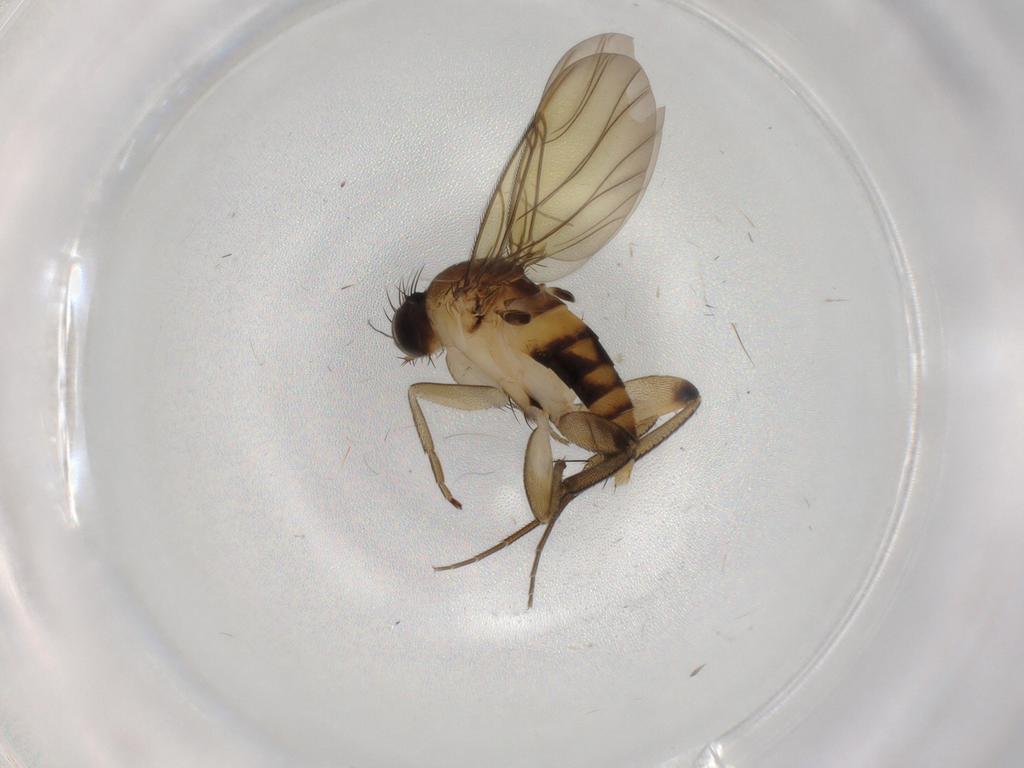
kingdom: Animalia
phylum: Arthropoda
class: Insecta
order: Diptera
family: Phoridae
